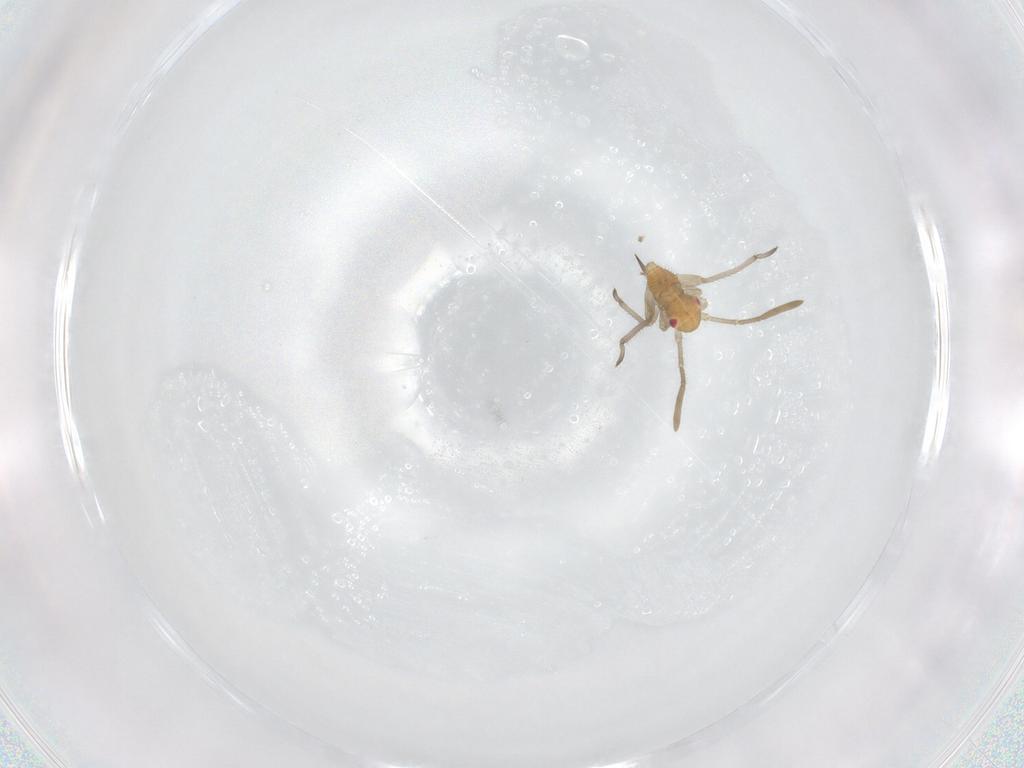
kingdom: Animalia
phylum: Arthropoda
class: Insecta
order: Hemiptera
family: Miridae
